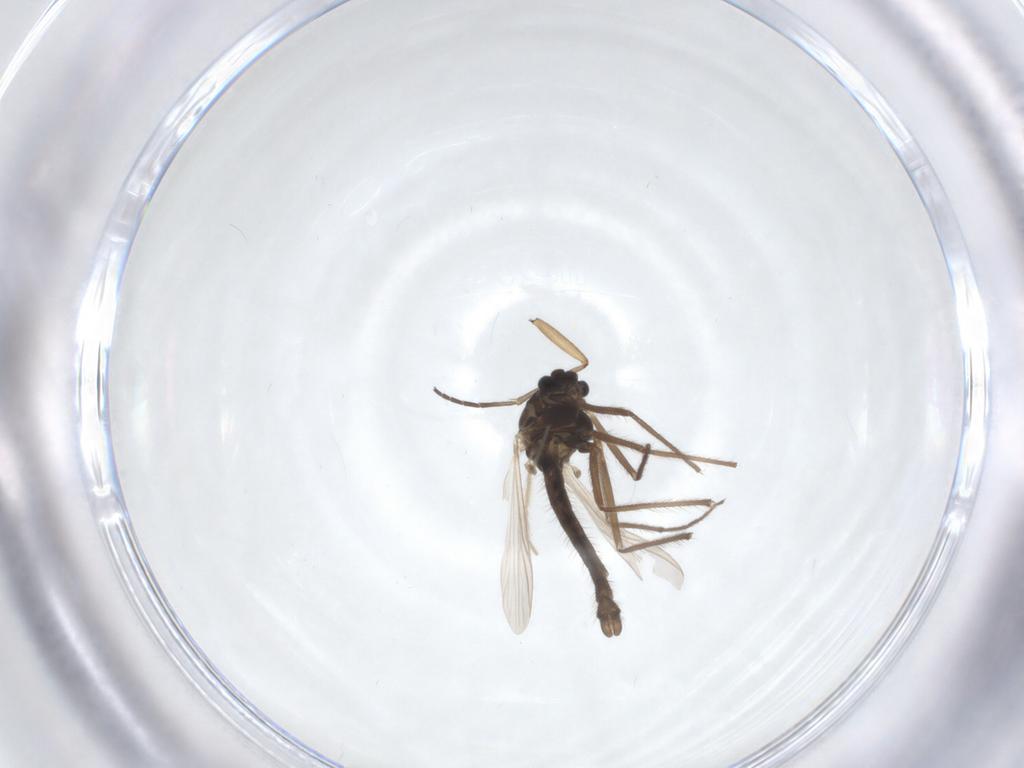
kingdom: Animalia
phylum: Arthropoda
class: Insecta
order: Diptera
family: Chironomidae
